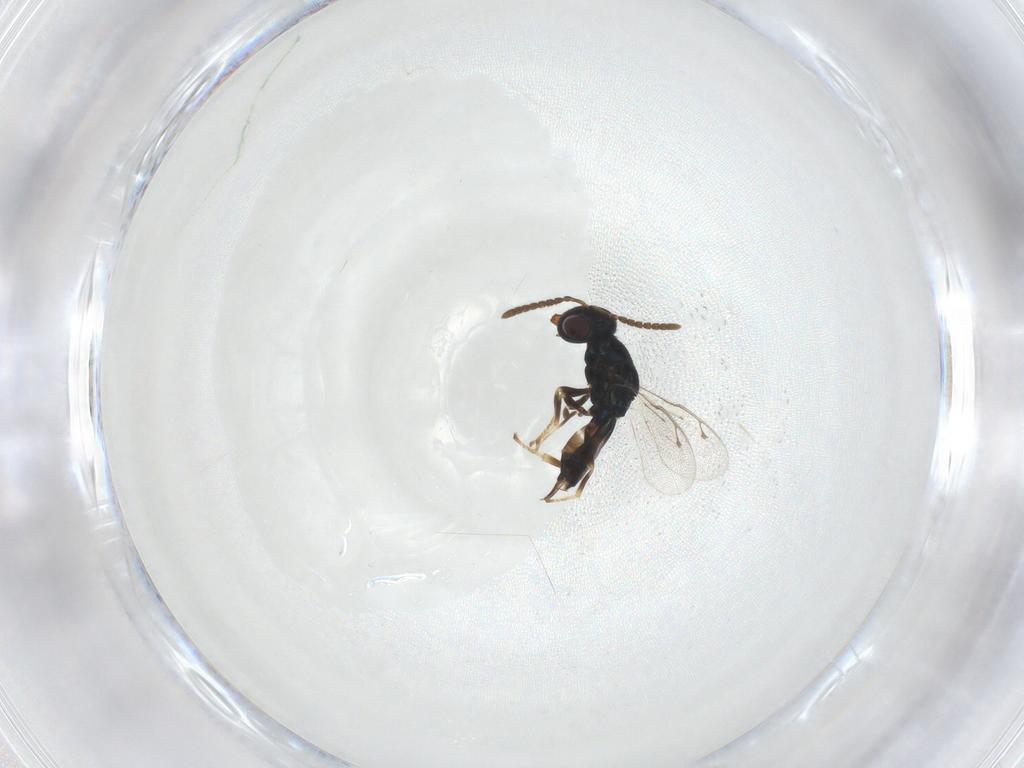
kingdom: Animalia
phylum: Arthropoda
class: Insecta
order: Hymenoptera
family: Pteromalidae
